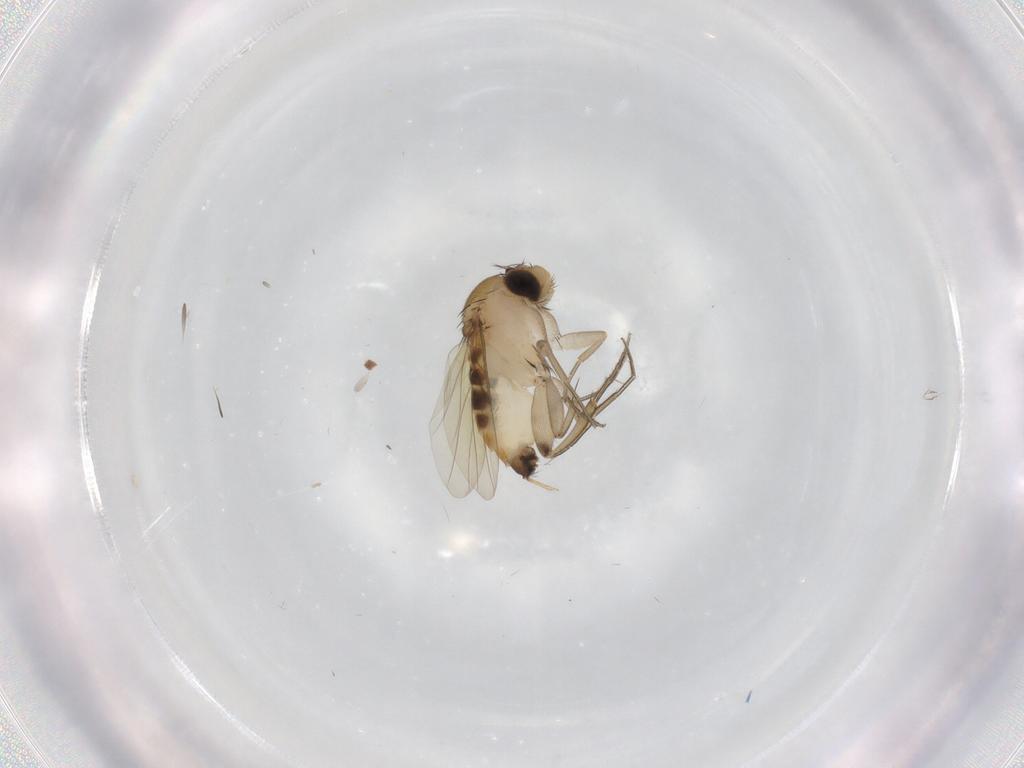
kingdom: Animalia
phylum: Arthropoda
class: Insecta
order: Diptera
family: Phoridae
